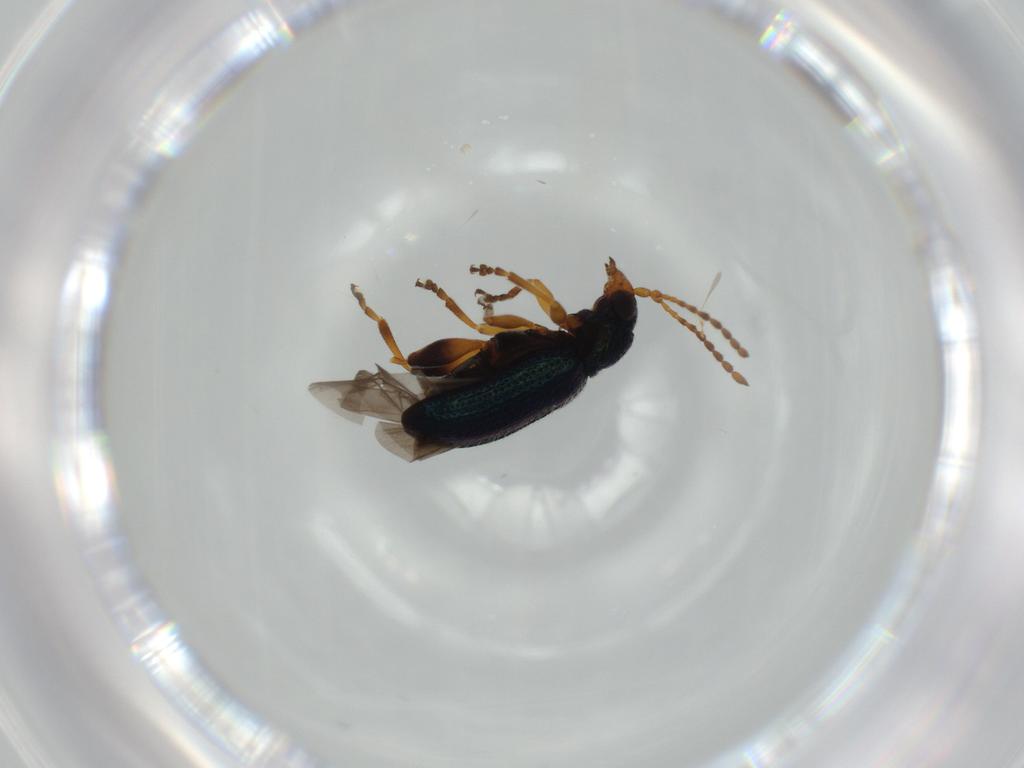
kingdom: Animalia
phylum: Arthropoda
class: Insecta
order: Coleoptera
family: Chrysomelidae
